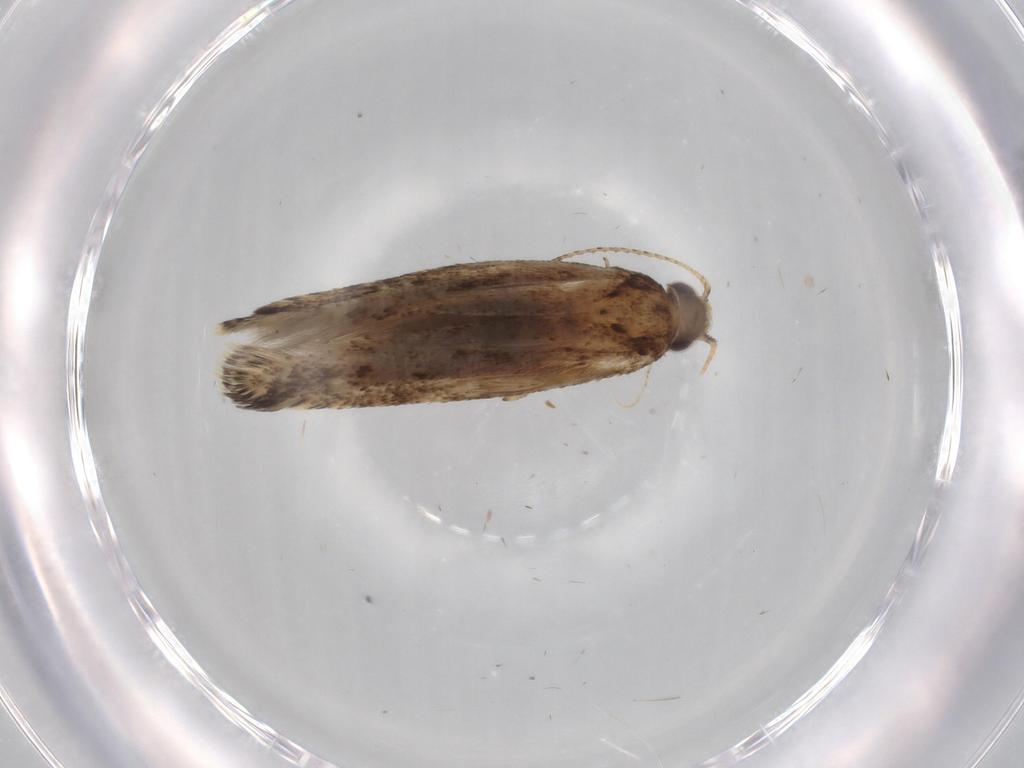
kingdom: Animalia
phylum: Arthropoda
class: Insecta
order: Lepidoptera
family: Gelechiidae
